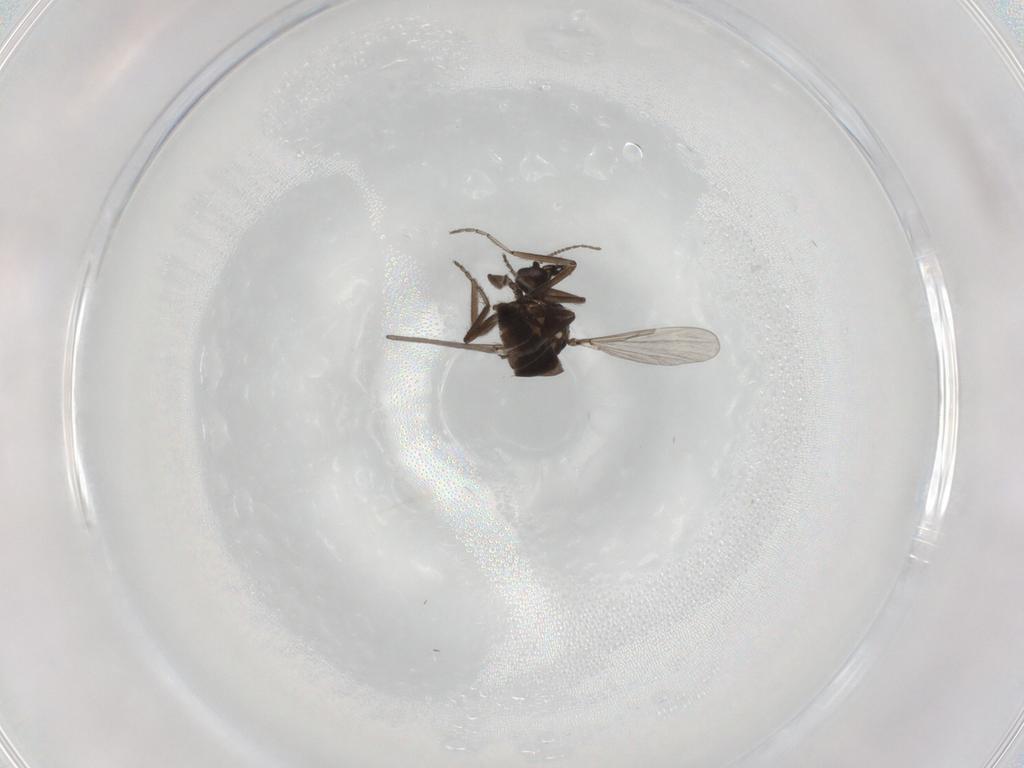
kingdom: Animalia
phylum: Arthropoda
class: Insecta
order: Diptera
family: Ceratopogonidae
